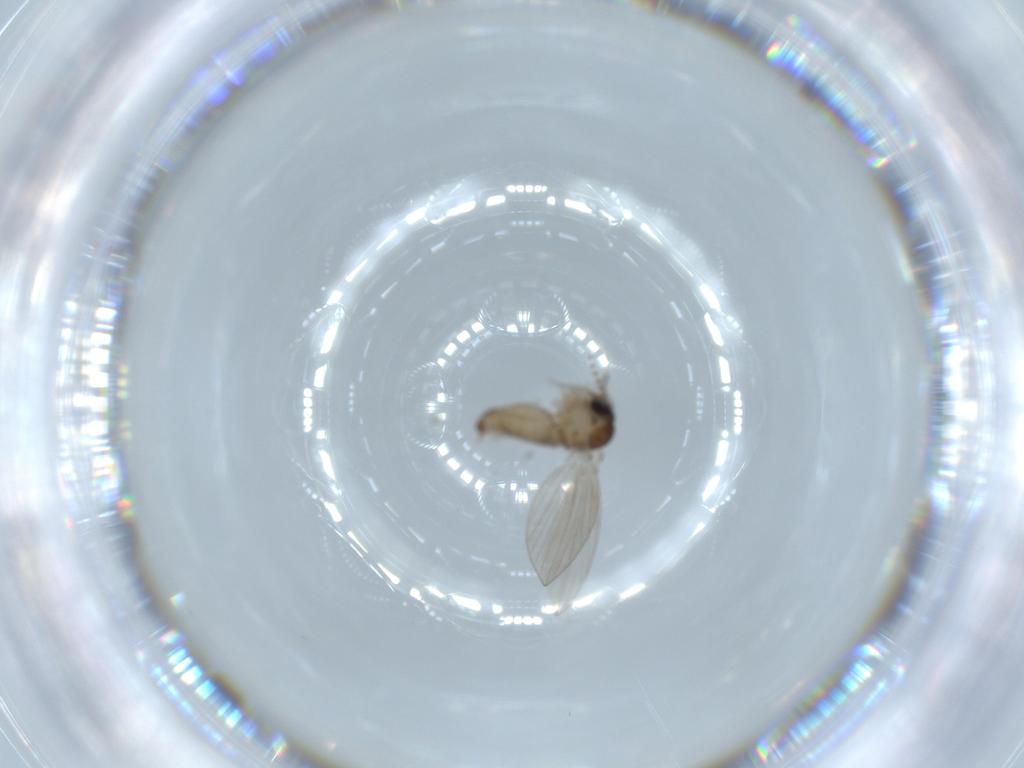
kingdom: Animalia
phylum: Arthropoda
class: Insecta
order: Diptera
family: Psychodidae
